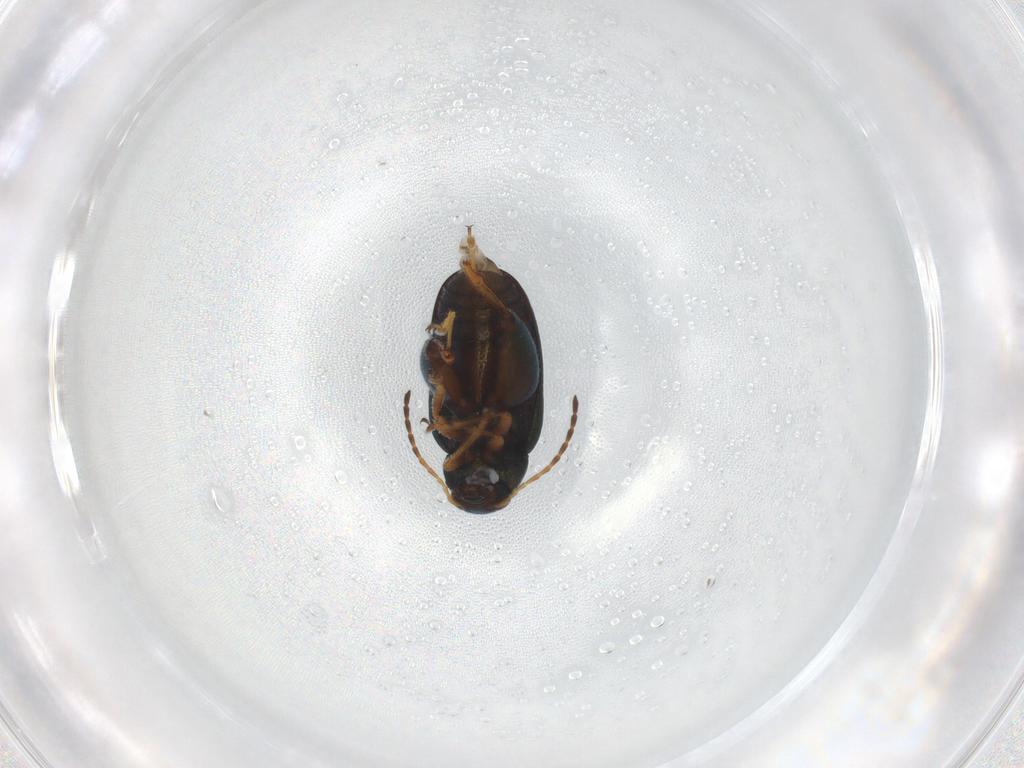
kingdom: Animalia
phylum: Arthropoda
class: Insecta
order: Coleoptera
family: Chrysomelidae
